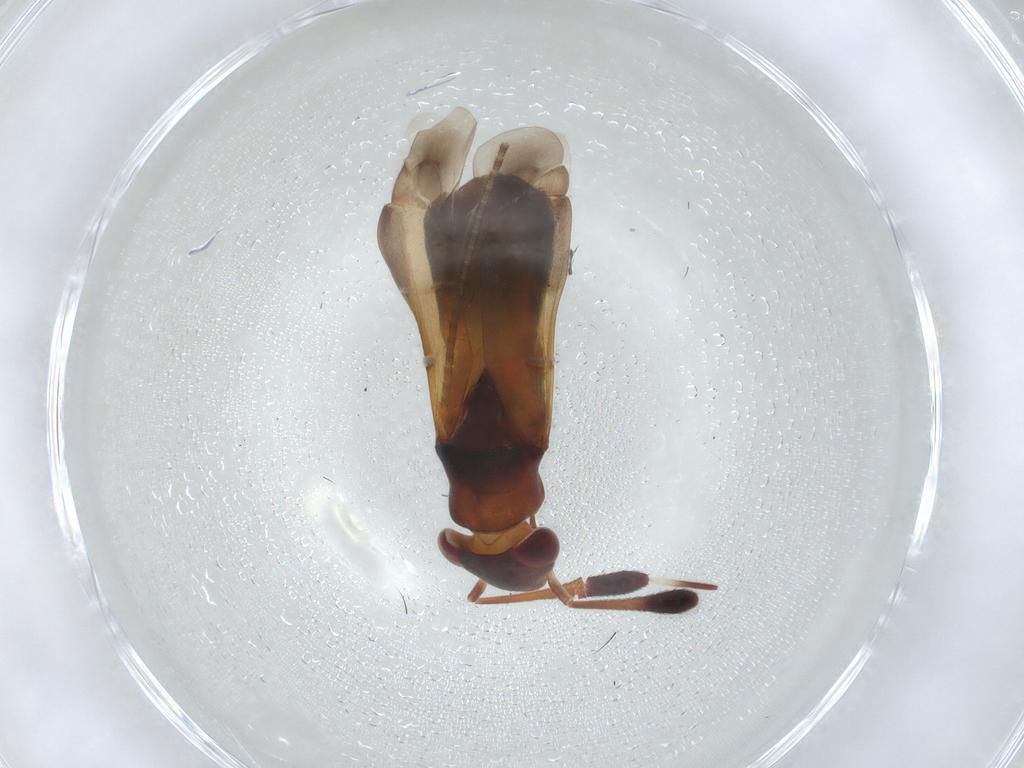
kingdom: Animalia
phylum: Arthropoda
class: Insecta
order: Hemiptera
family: Miridae
